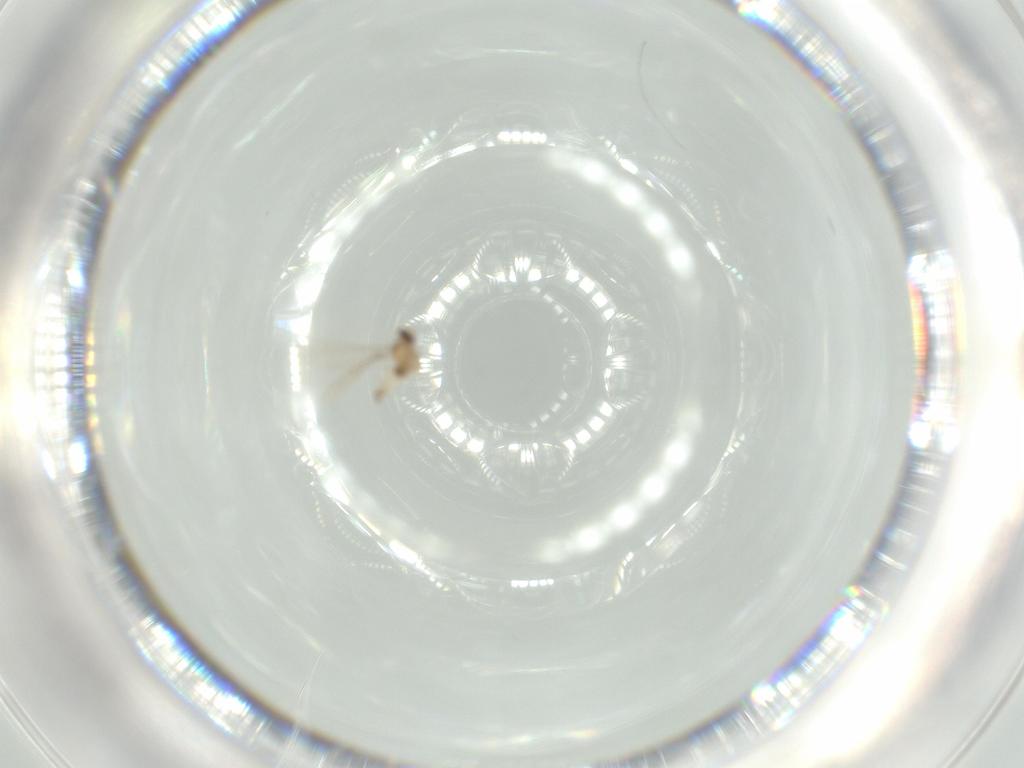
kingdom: Animalia
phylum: Arthropoda
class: Insecta
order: Diptera
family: Cecidomyiidae
